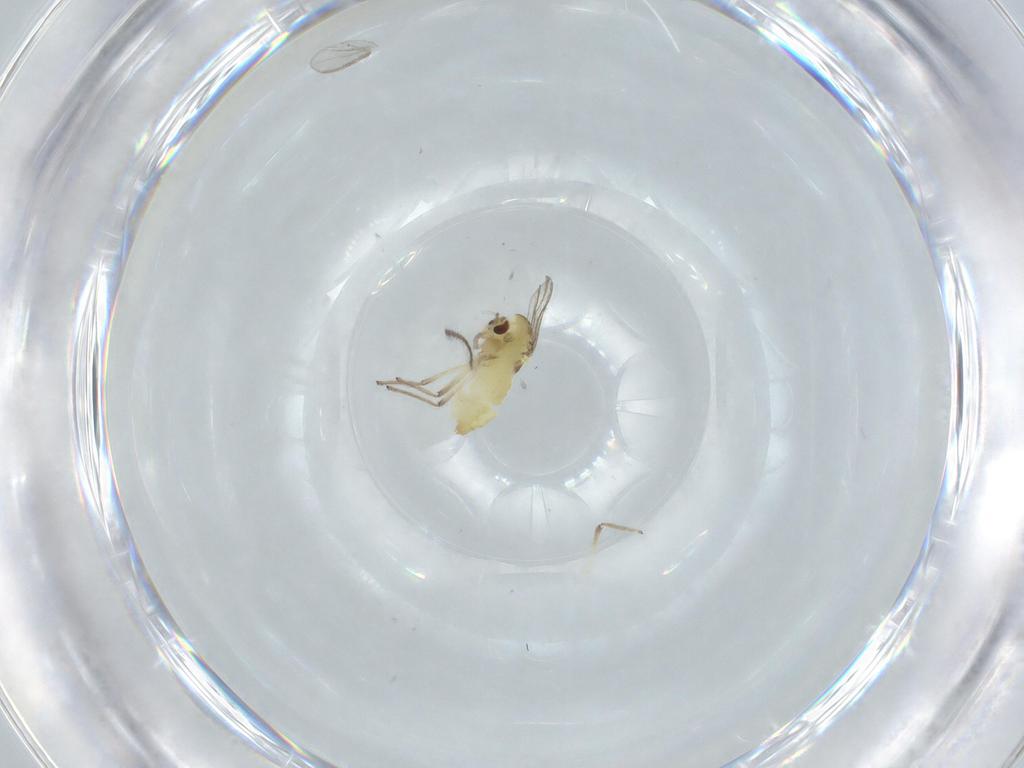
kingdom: Animalia
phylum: Arthropoda
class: Insecta
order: Diptera
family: Chironomidae
